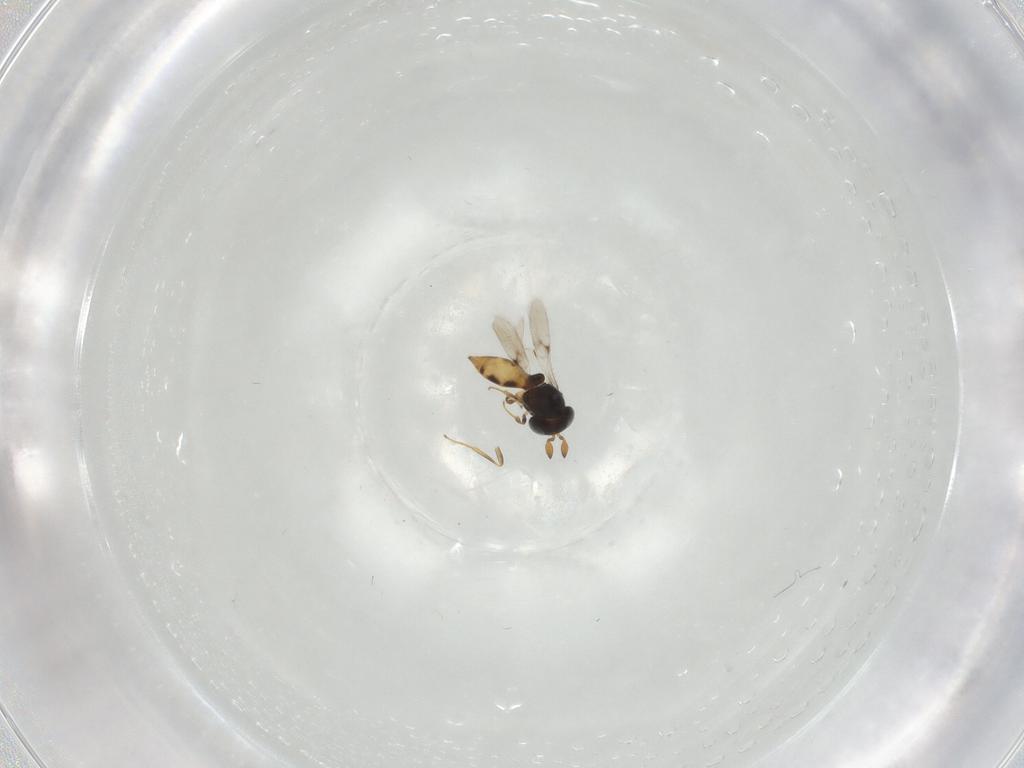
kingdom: Animalia
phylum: Arthropoda
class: Insecta
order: Hymenoptera
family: Scelionidae
